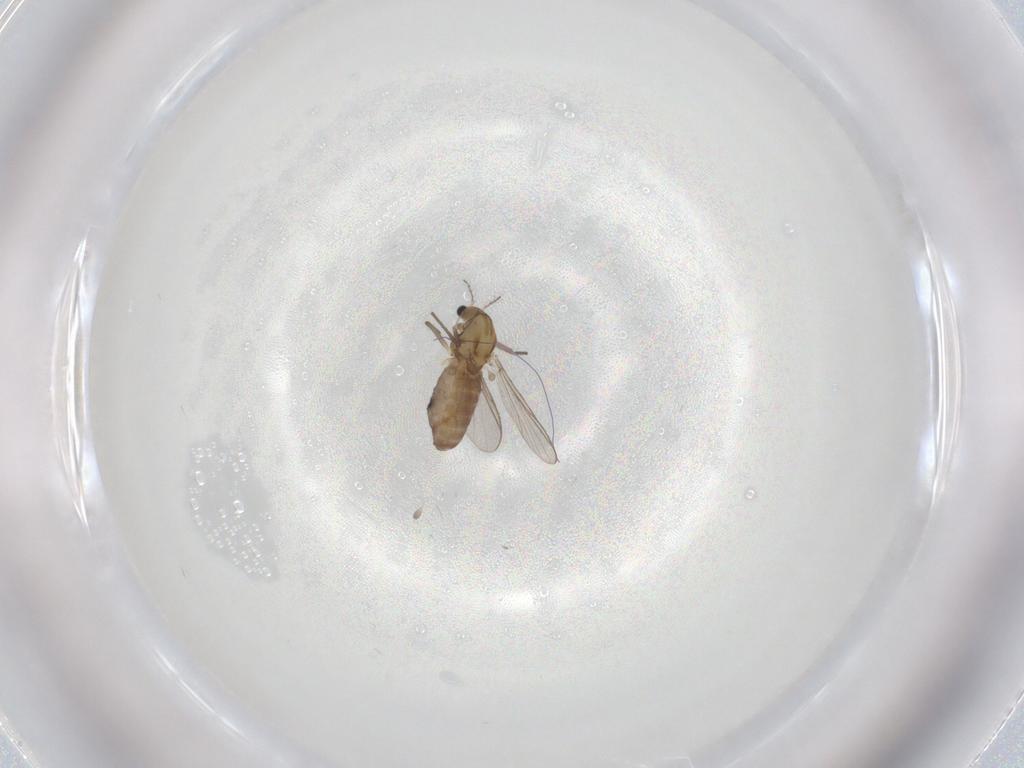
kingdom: Animalia
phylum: Arthropoda
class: Insecta
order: Diptera
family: Chironomidae
